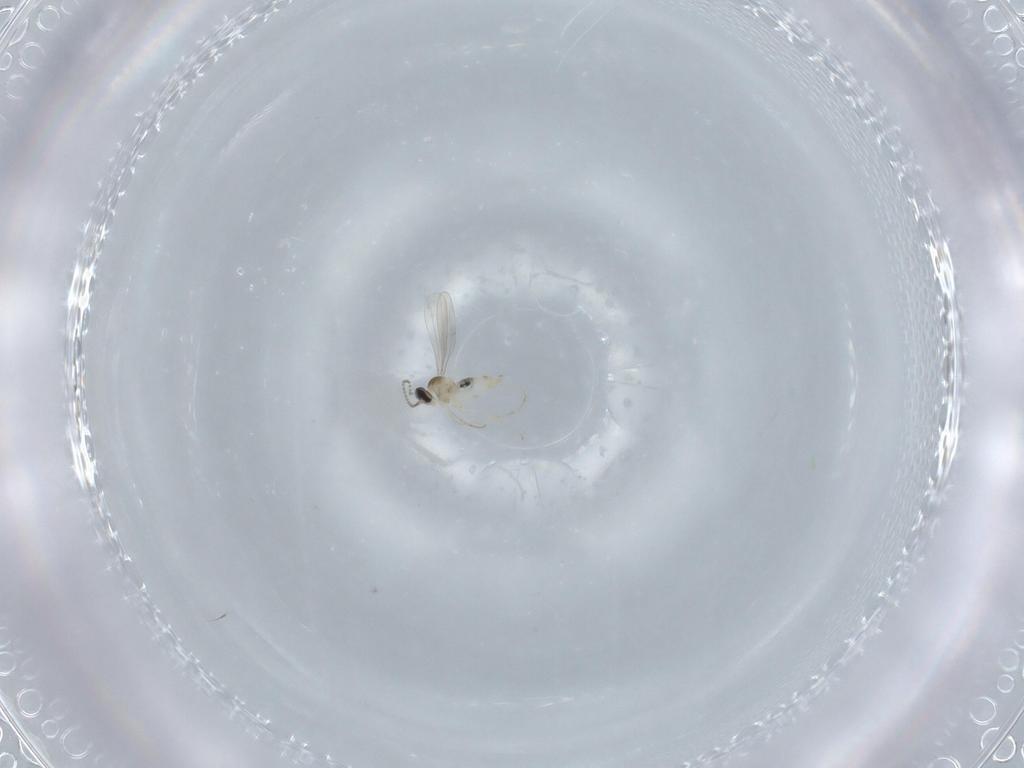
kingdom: Animalia
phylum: Arthropoda
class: Insecta
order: Diptera
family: Cecidomyiidae
